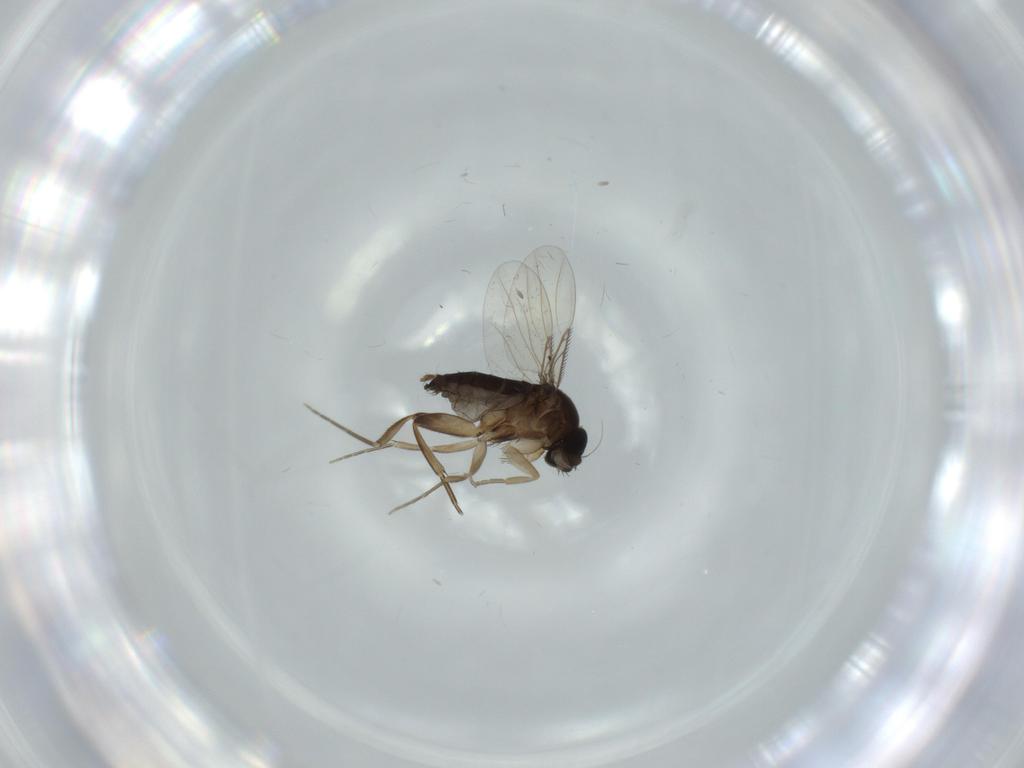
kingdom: Animalia
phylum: Arthropoda
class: Insecta
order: Diptera
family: Phoridae
